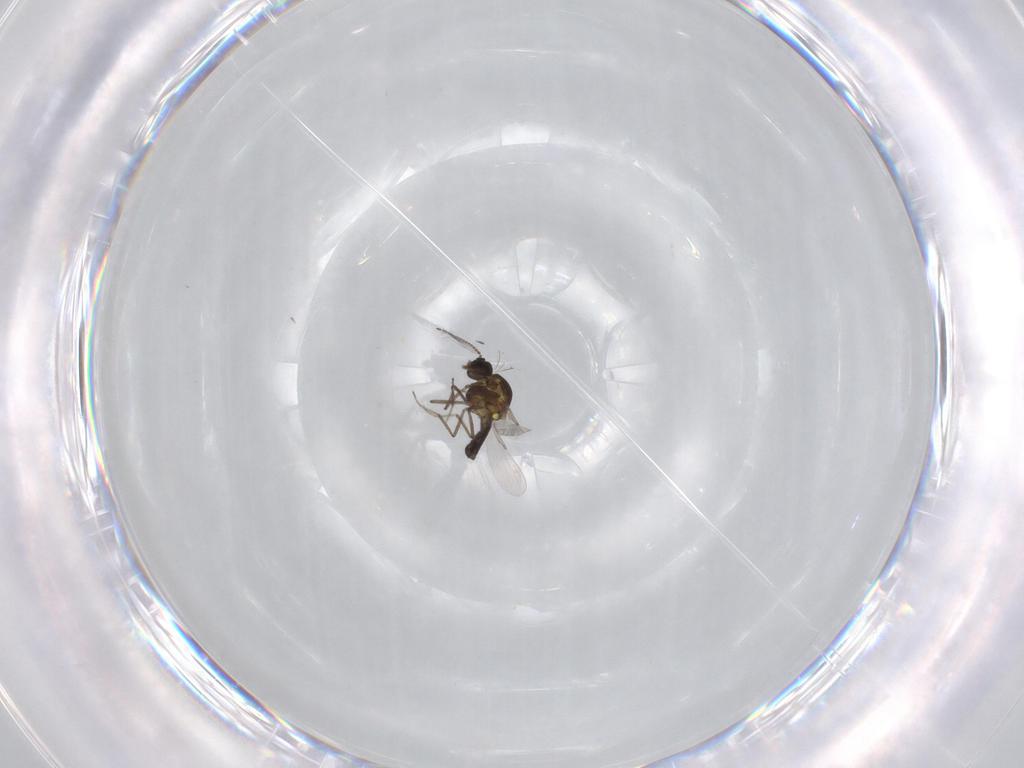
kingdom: Animalia
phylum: Arthropoda
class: Insecta
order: Diptera
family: Ceratopogonidae
